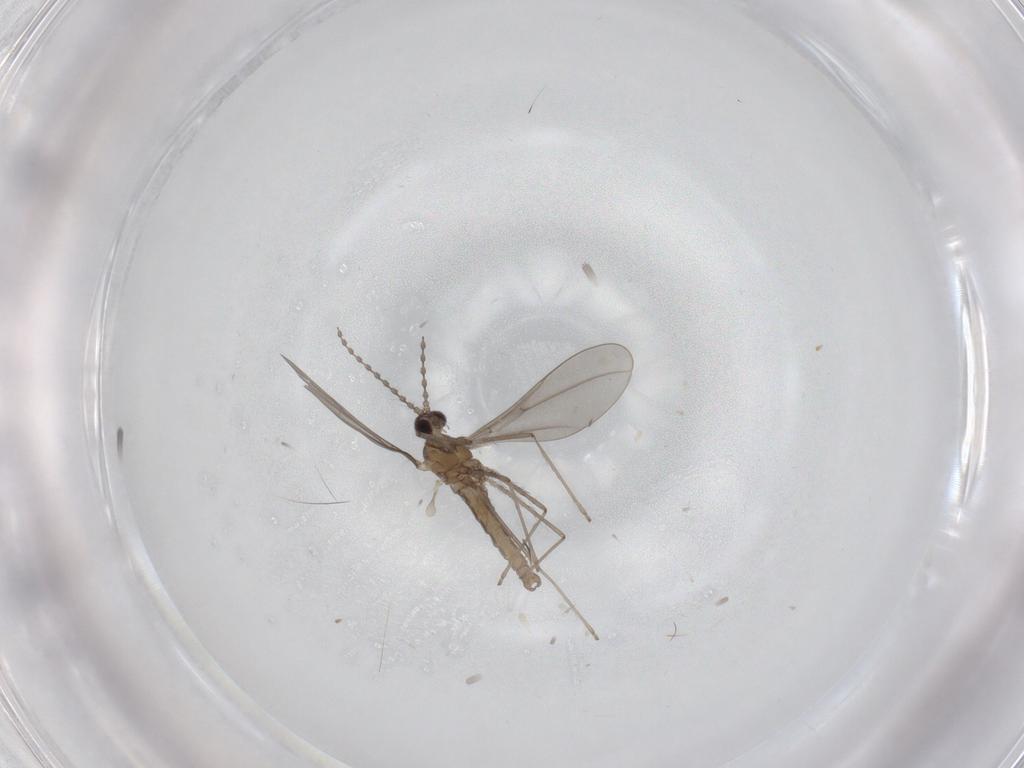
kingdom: Animalia
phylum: Arthropoda
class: Insecta
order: Diptera
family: Cecidomyiidae
